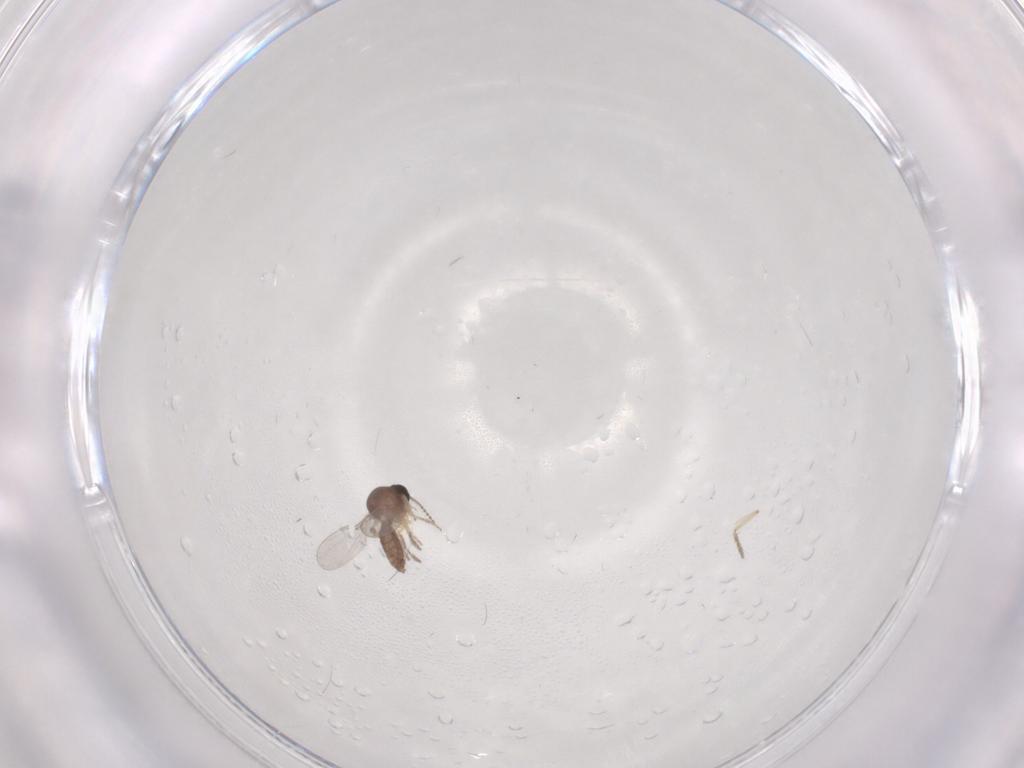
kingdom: Animalia
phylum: Arthropoda
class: Insecta
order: Diptera
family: Ceratopogonidae
